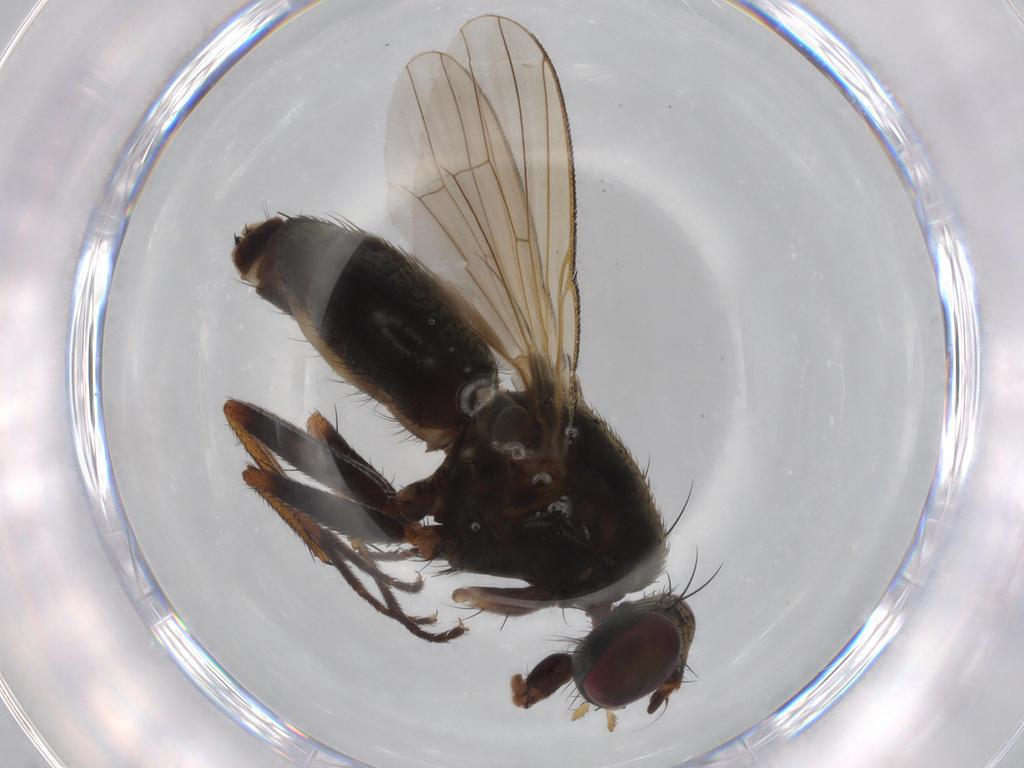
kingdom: Animalia
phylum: Arthropoda
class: Insecta
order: Diptera
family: Muscidae
